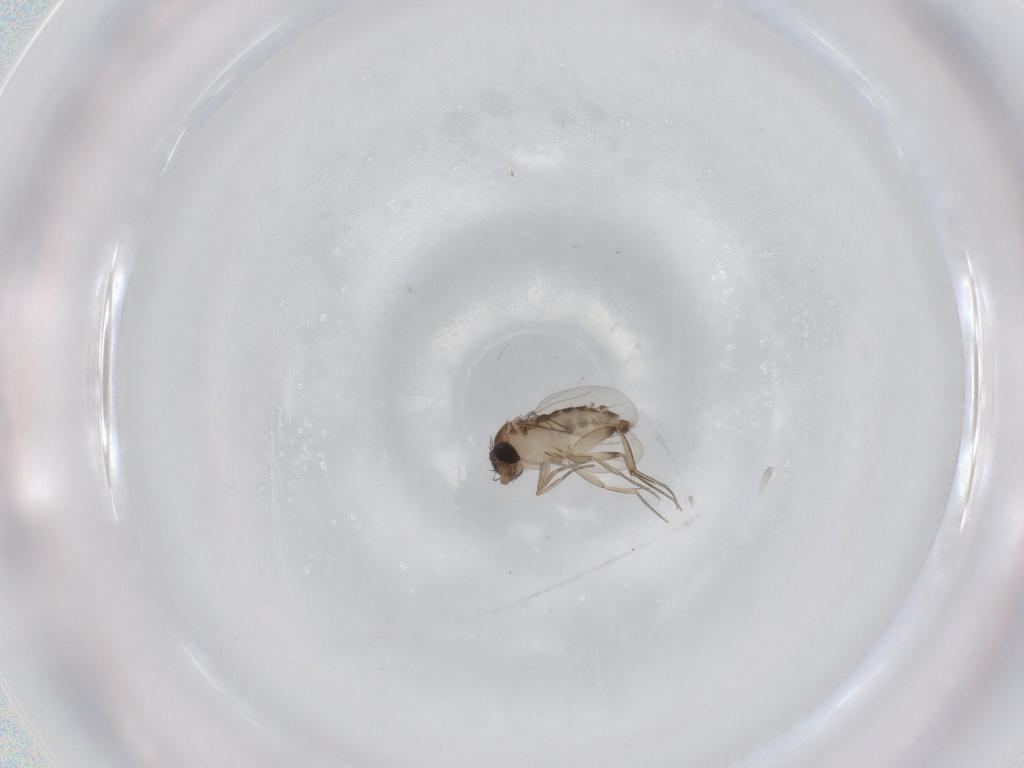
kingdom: Animalia
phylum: Arthropoda
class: Insecta
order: Diptera
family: Phoridae
